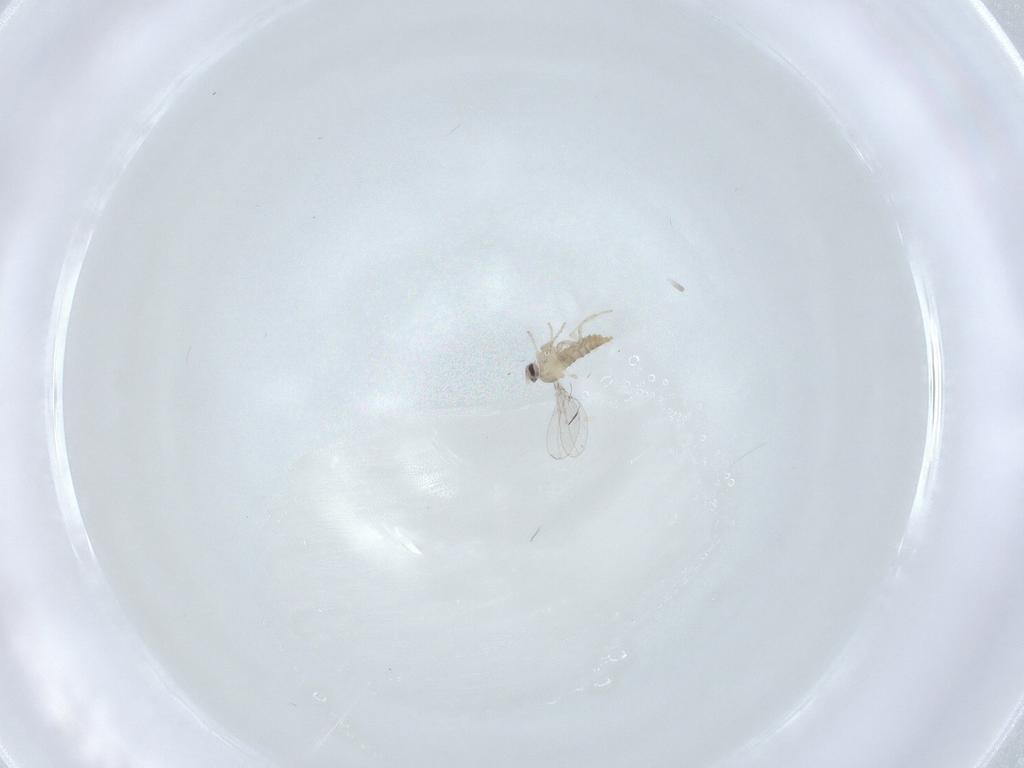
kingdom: Animalia
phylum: Arthropoda
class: Insecta
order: Diptera
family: Cecidomyiidae
